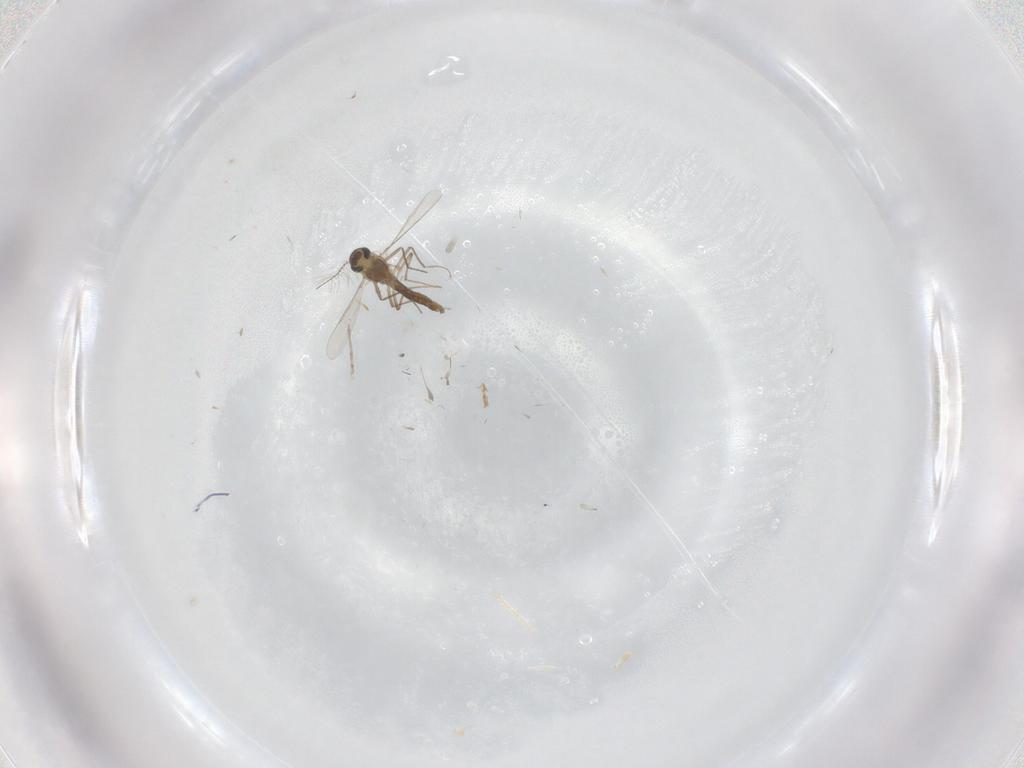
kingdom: Animalia
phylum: Arthropoda
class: Insecta
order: Diptera
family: Chironomidae
